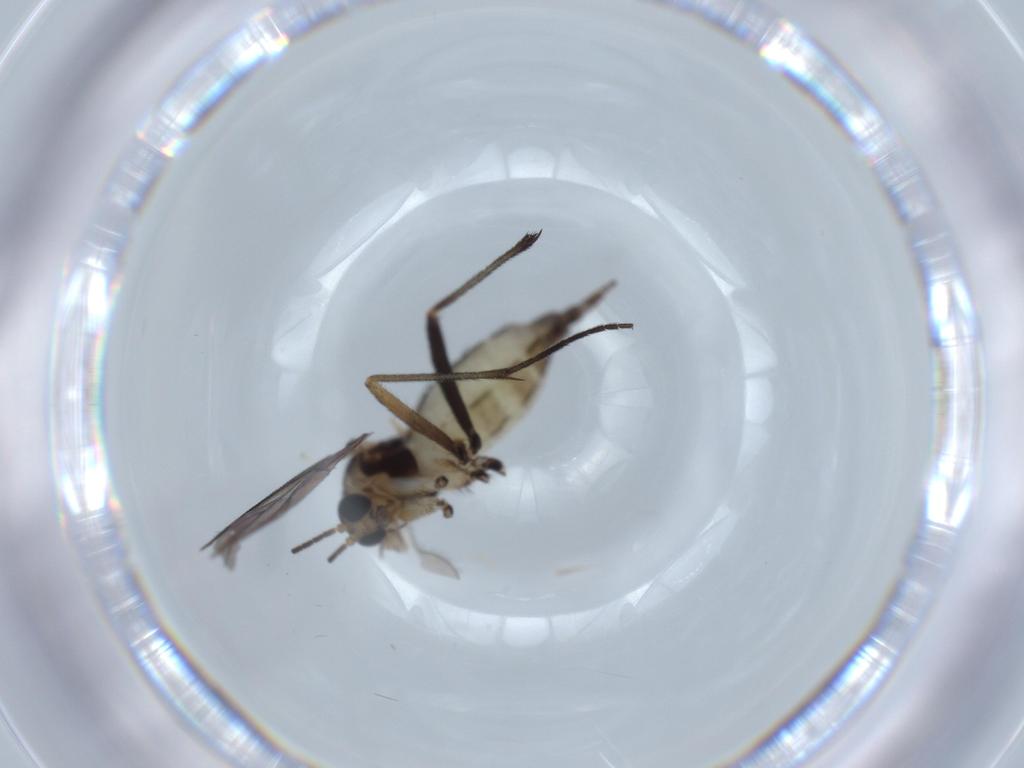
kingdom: Animalia
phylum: Arthropoda
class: Insecta
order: Diptera
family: Sciaridae
